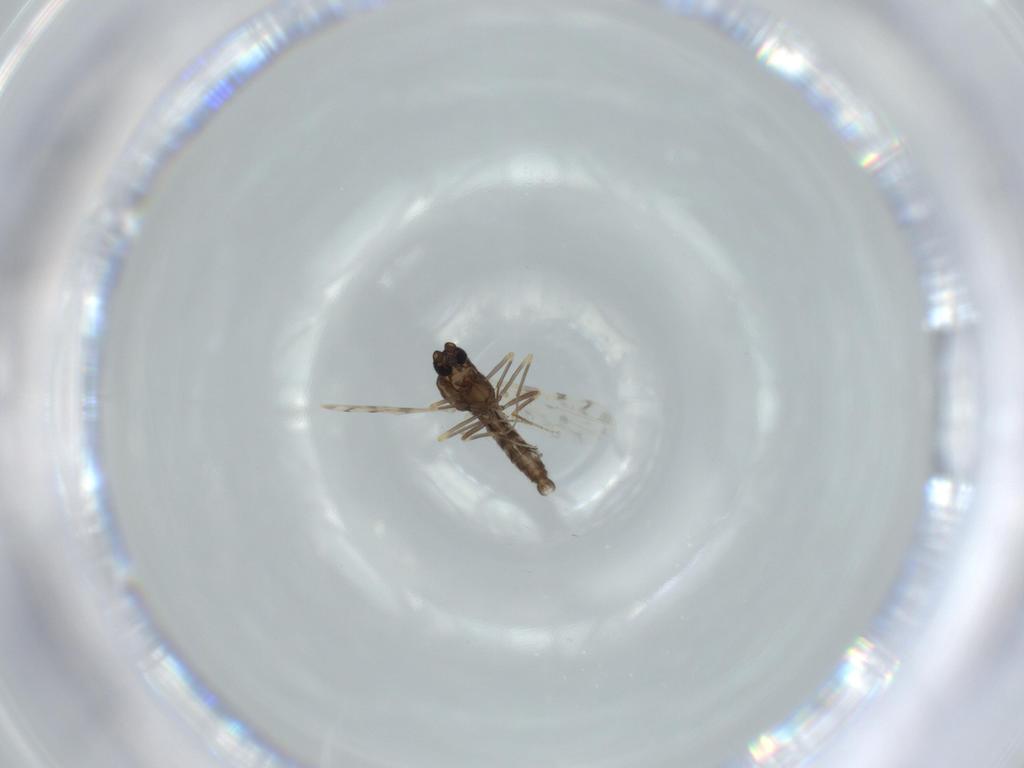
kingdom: Animalia
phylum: Arthropoda
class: Insecta
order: Diptera
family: Ceratopogonidae
